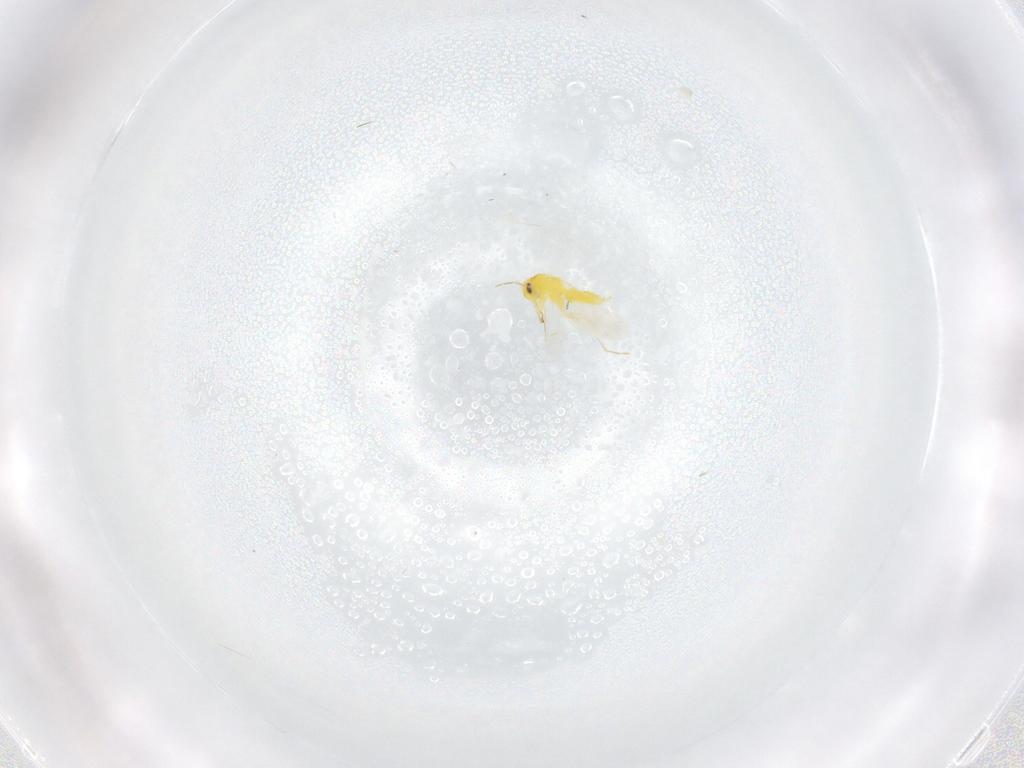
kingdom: Animalia
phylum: Arthropoda
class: Insecta
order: Hemiptera
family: Aleyrodidae
